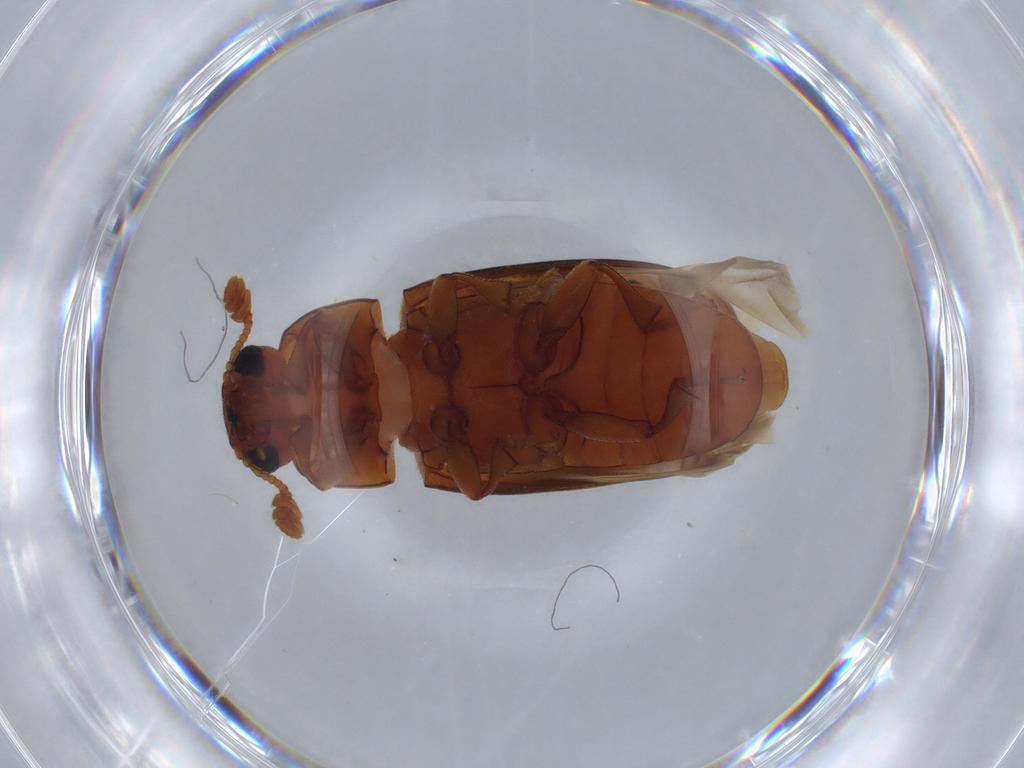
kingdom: Animalia
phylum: Arthropoda
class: Insecta
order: Coleoptera
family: Erotylidae
